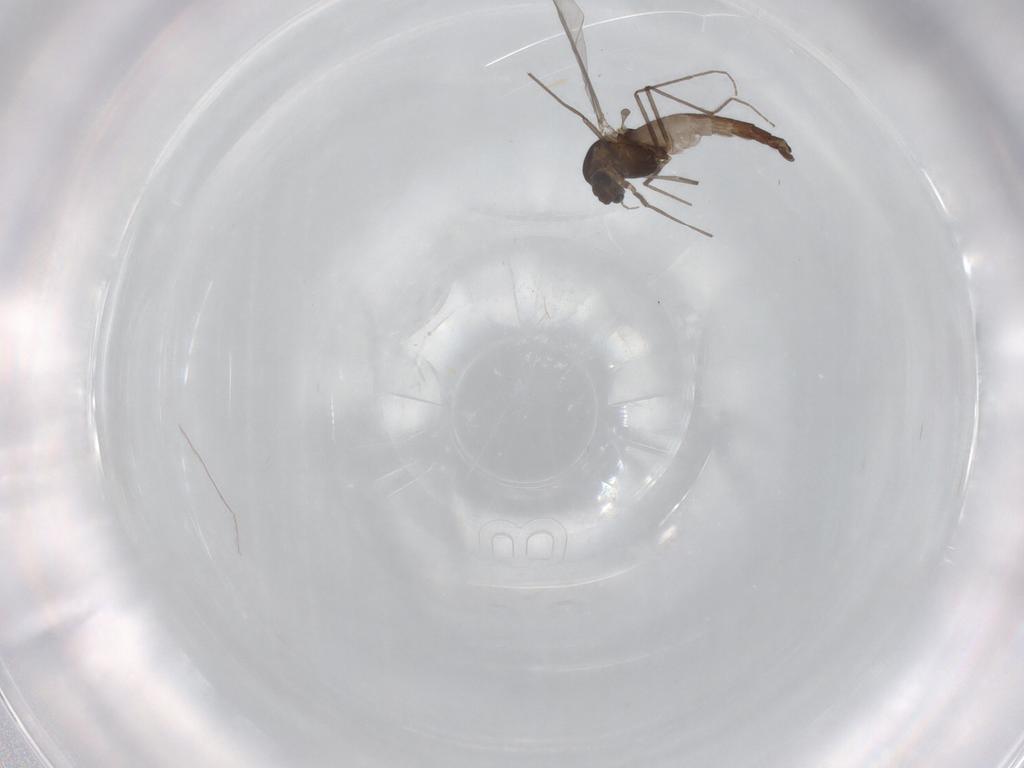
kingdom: Animalia
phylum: Arthropoda
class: Insecta
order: Diptera
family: Chironomidae
